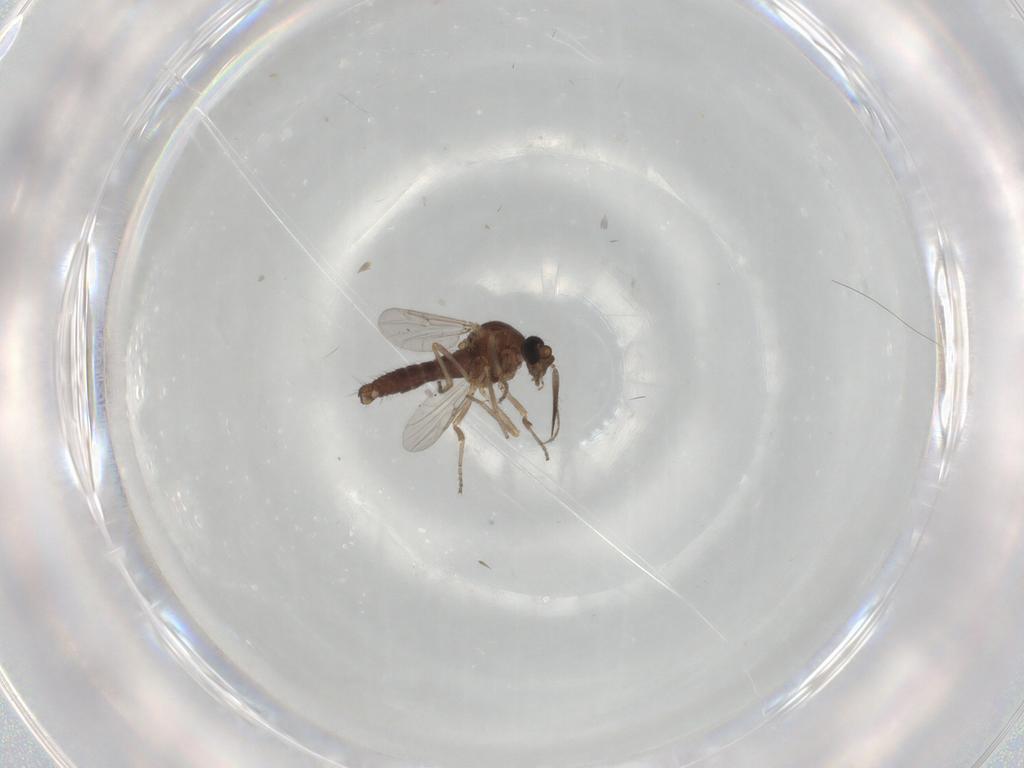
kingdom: Animalia
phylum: Arthropoda
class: Insecta
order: Diptera
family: Ceratopogonidae
